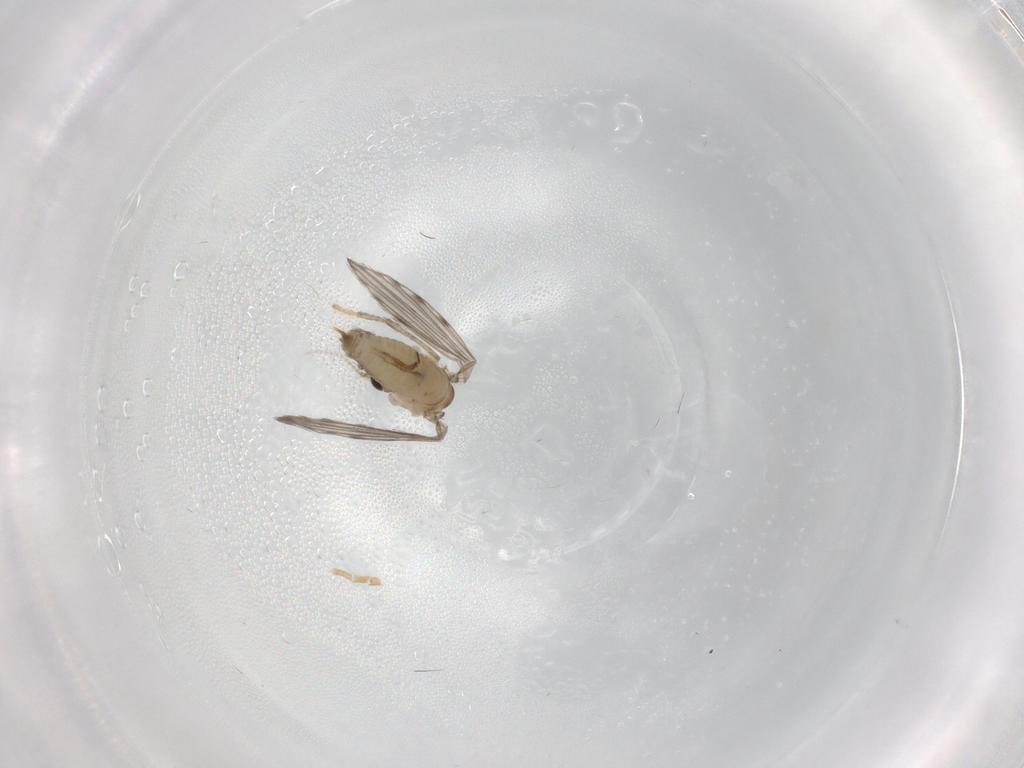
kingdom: Animalia
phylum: Arthropoda
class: Insecta
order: Diptera
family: Psychodidae
